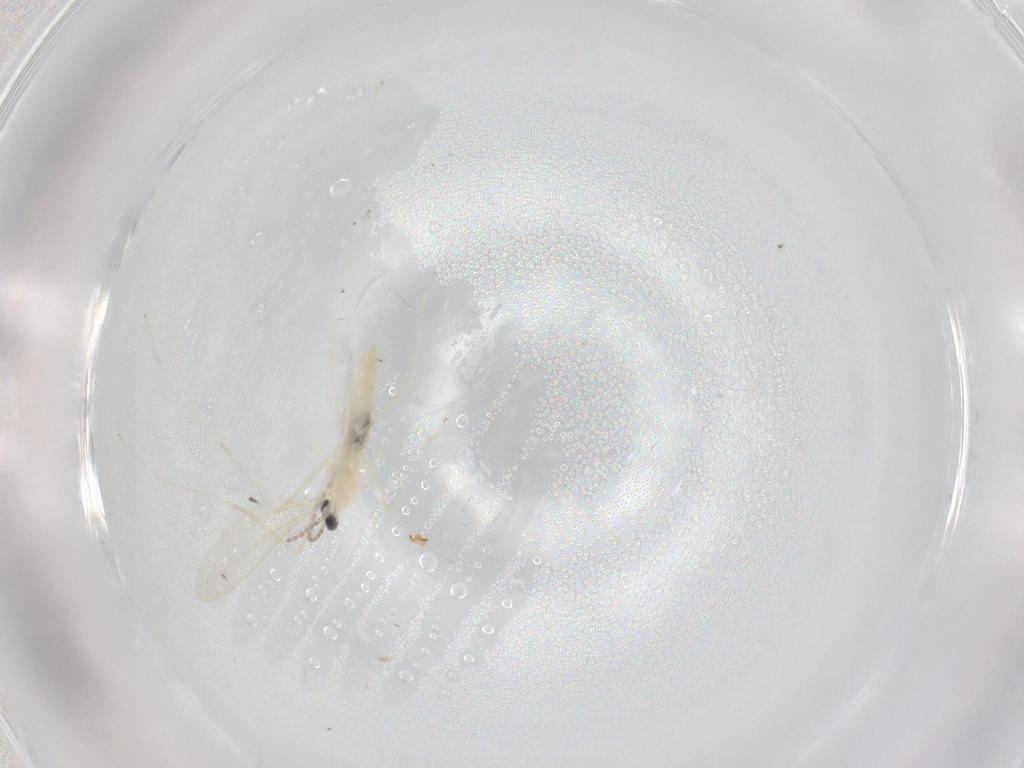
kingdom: Animalia
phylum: Arthropoda
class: Insecta
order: Diptera
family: Cecidomyiidae
